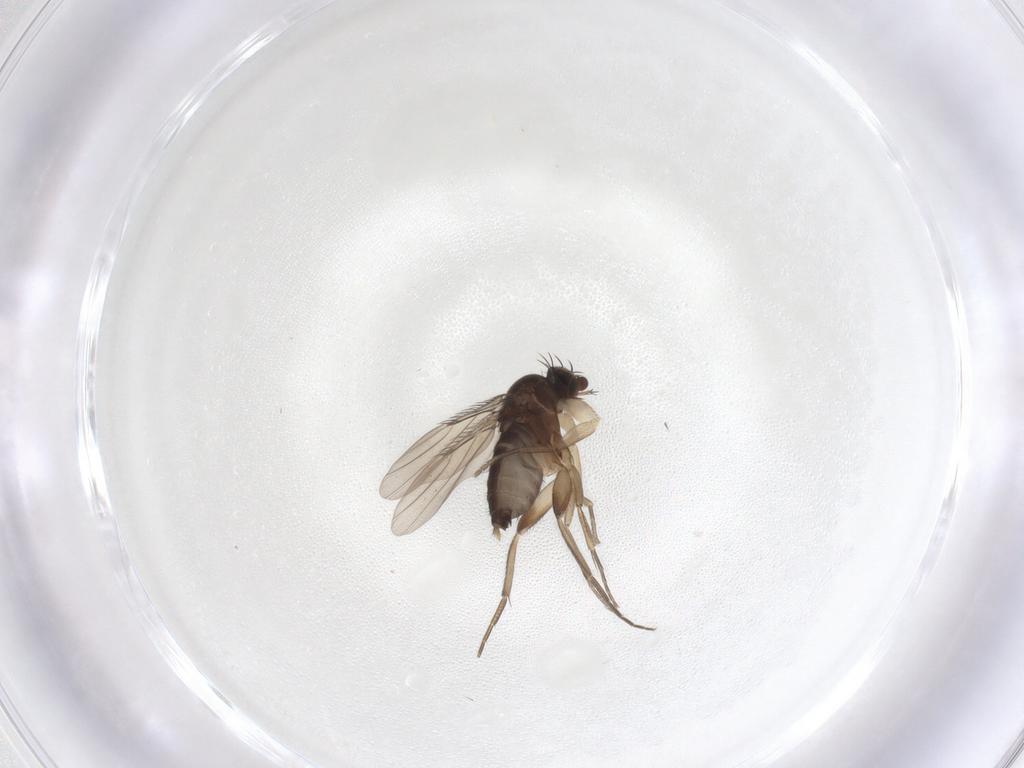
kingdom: Animalia
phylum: Arthropoda
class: Insecta
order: Diptera
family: Phoridae
